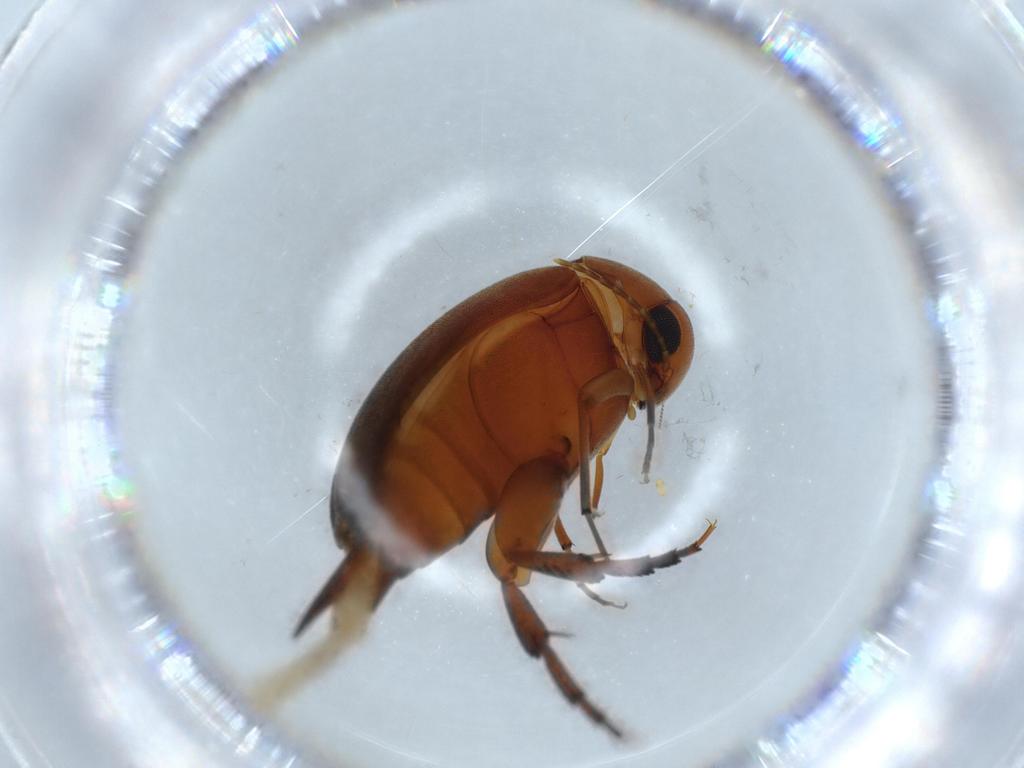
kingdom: Animalia
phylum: Arthropoda
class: Insecta
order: Coleoptera
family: Mordellidae
